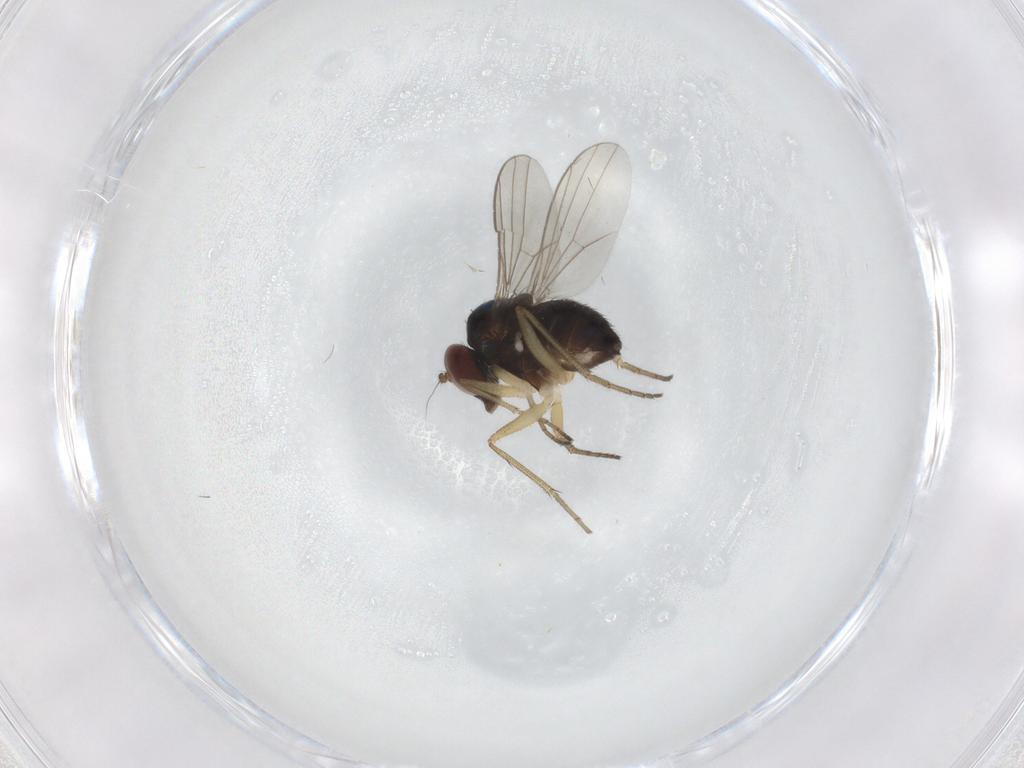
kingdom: Animalia
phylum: Arthropoda
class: Insecta
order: Diptera
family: Dolichopodidae
